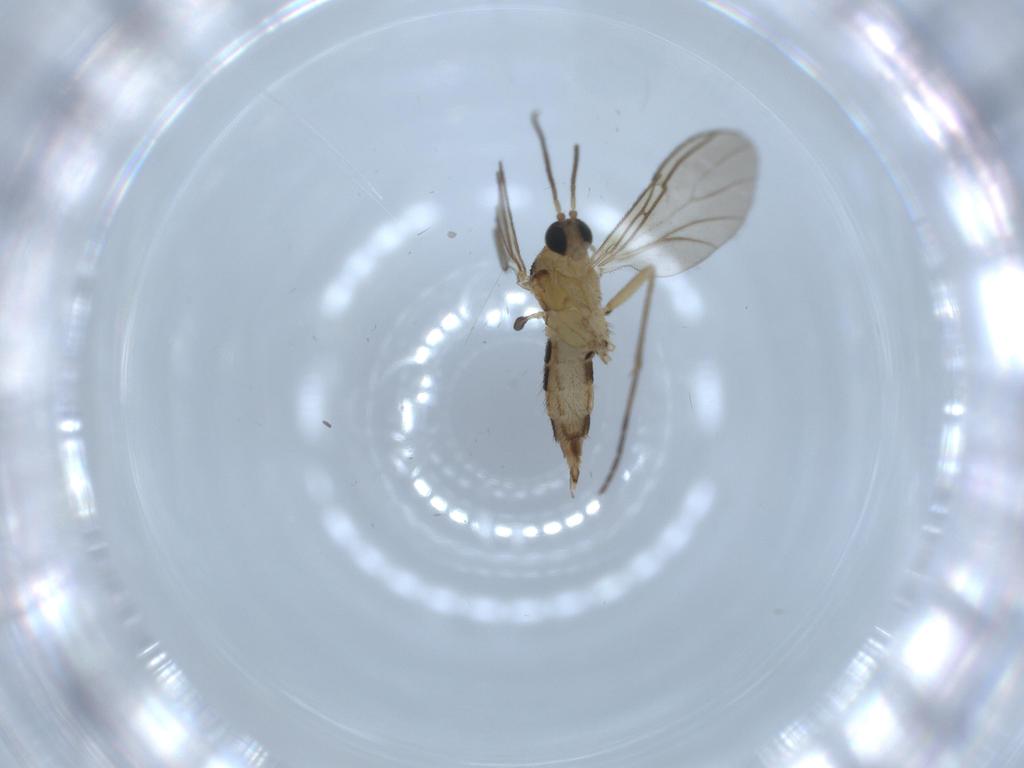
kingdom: Animalia
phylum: Arthropoda
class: Insecta
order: Diptera
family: Sciaridae
